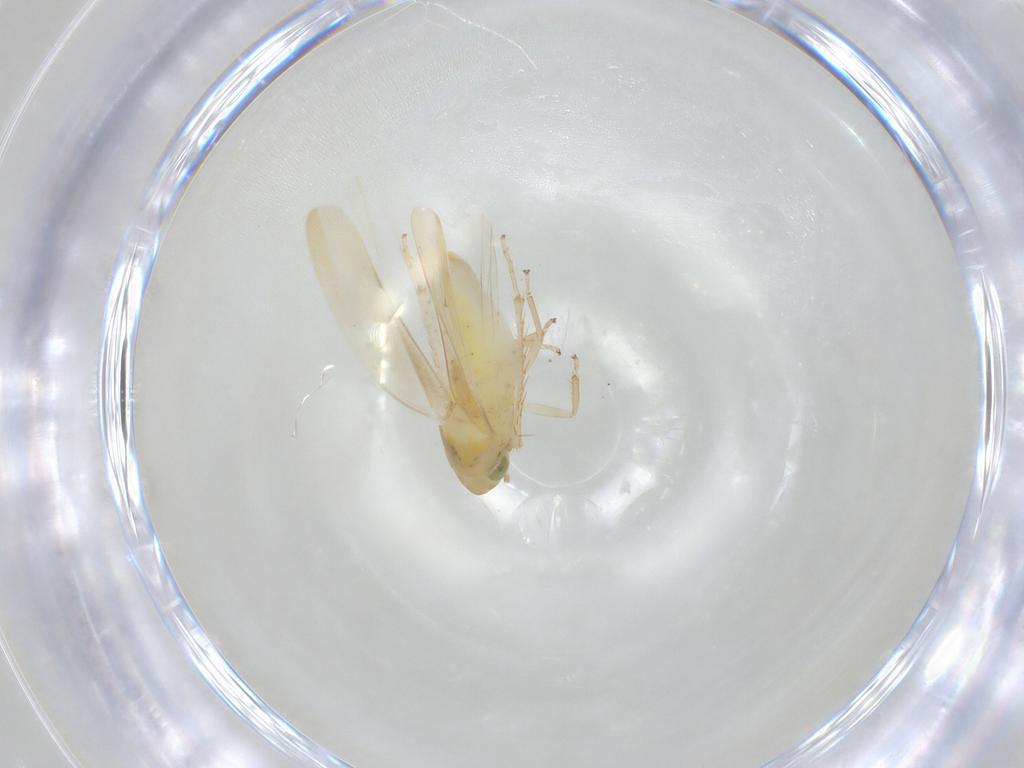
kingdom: Animalia
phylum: Arthropoda
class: Insecta
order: Hemiptera
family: Cicadellidae
